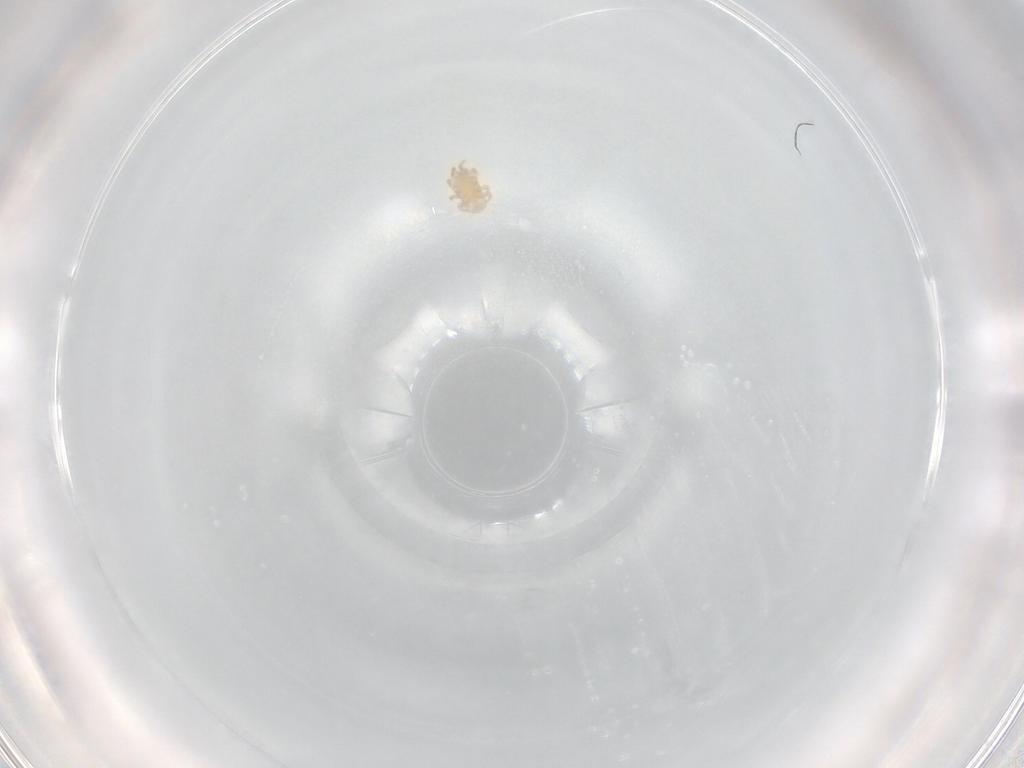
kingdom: Animalia
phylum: Arthropoda
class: Arachnida
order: Mesostigmata
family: Digamasellidae
